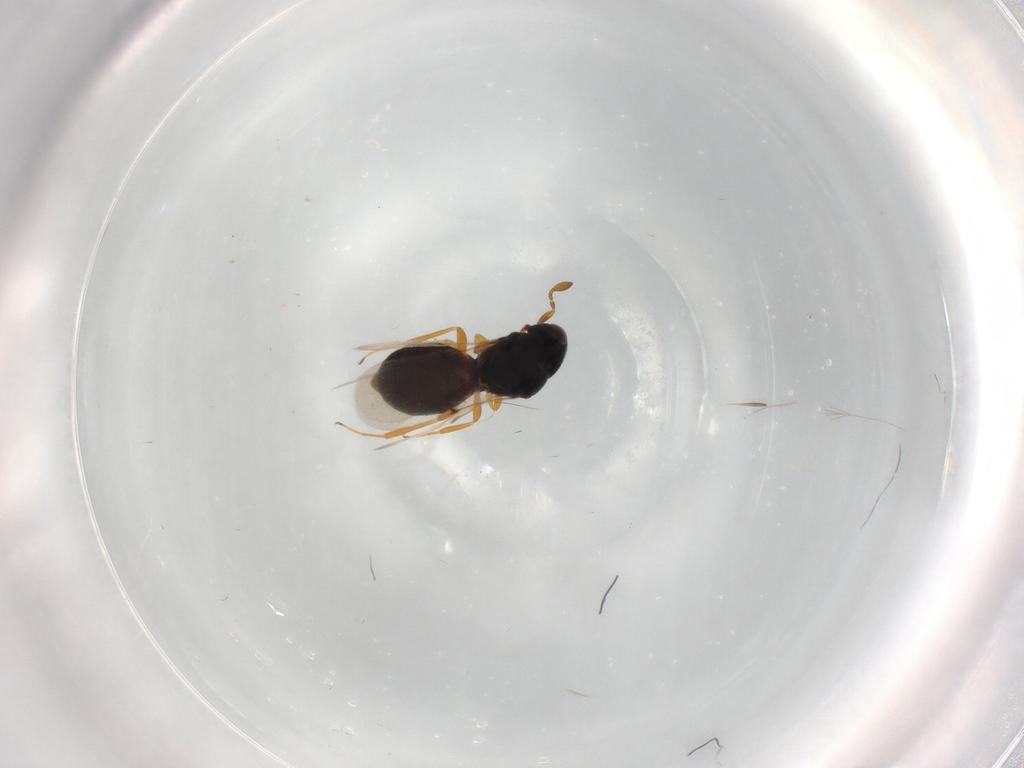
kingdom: Animalia
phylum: Arthropoda
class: Insecta
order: Hymenoptera
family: Scelionidae
